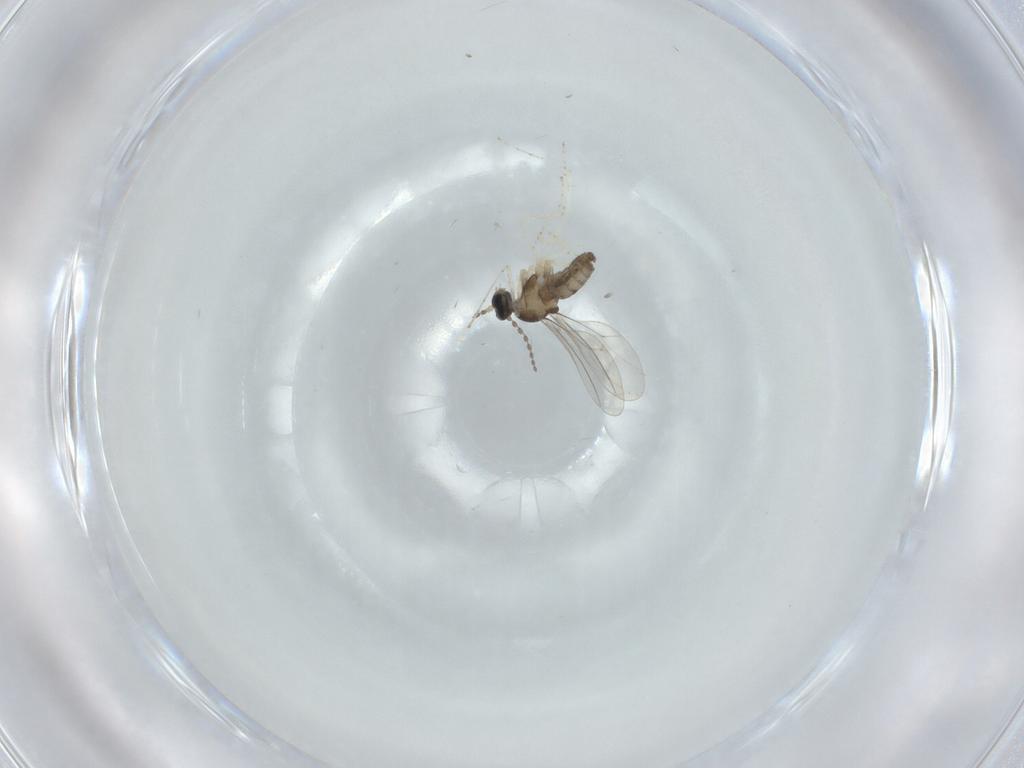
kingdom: Animalia
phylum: Arthropoda
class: Insecta
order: Diptera
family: Cecidomyiidae
